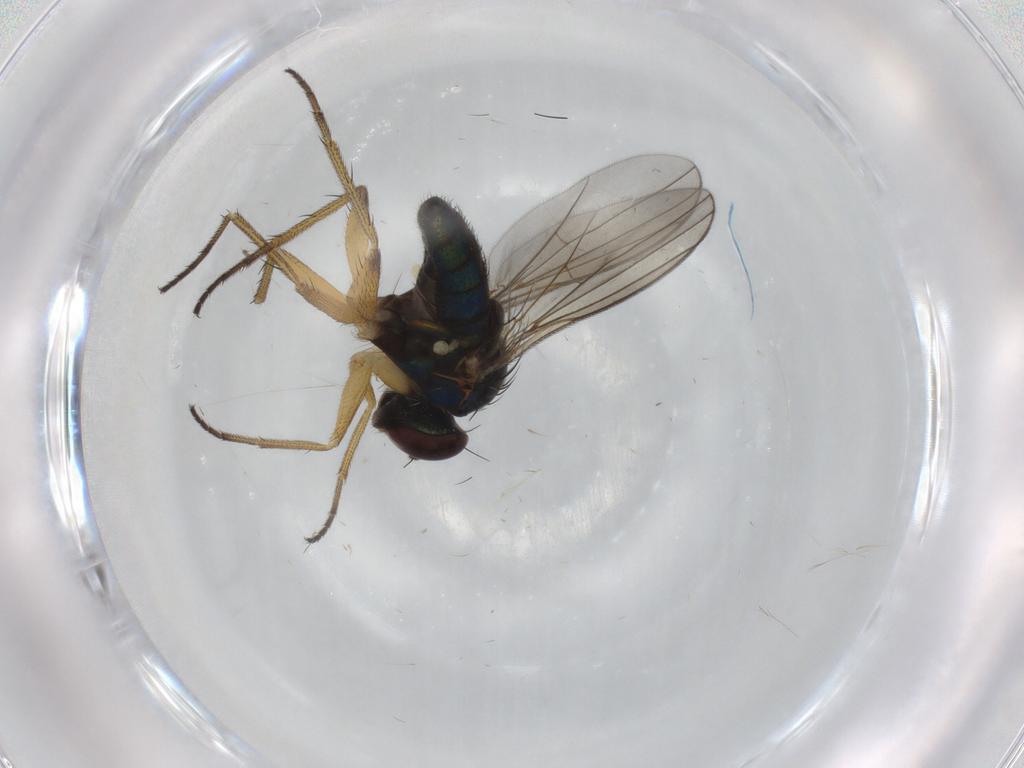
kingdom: Animalia
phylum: Arthropoda
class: Insecta
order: Diptera
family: Dolichopodidae
